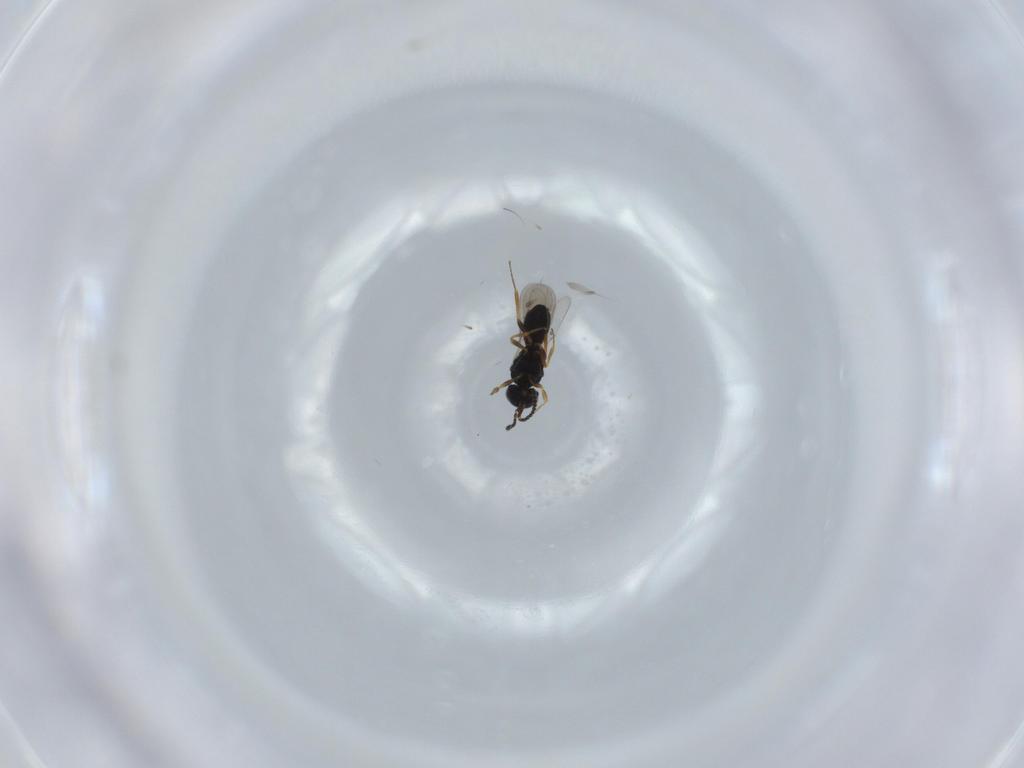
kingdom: Animalia
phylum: Arthropoda
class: Insecta
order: Hymenoptera
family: Scelionidae
